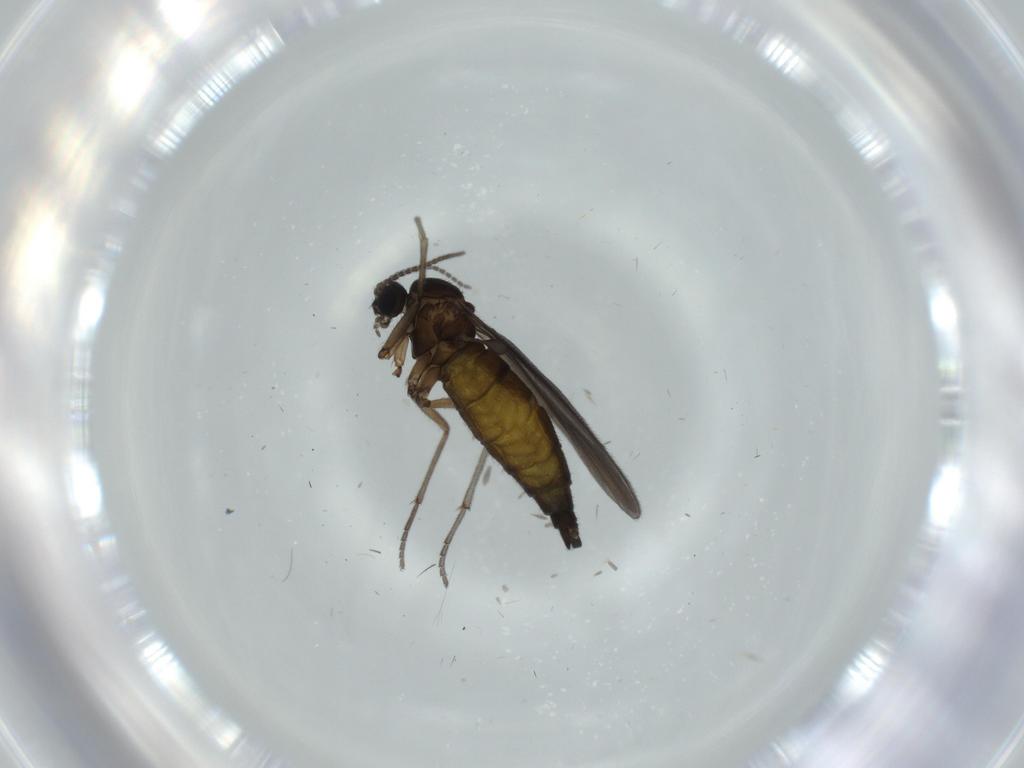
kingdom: Animalia
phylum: Arthropoda
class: Insecta
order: Diptera
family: Sciaridae
